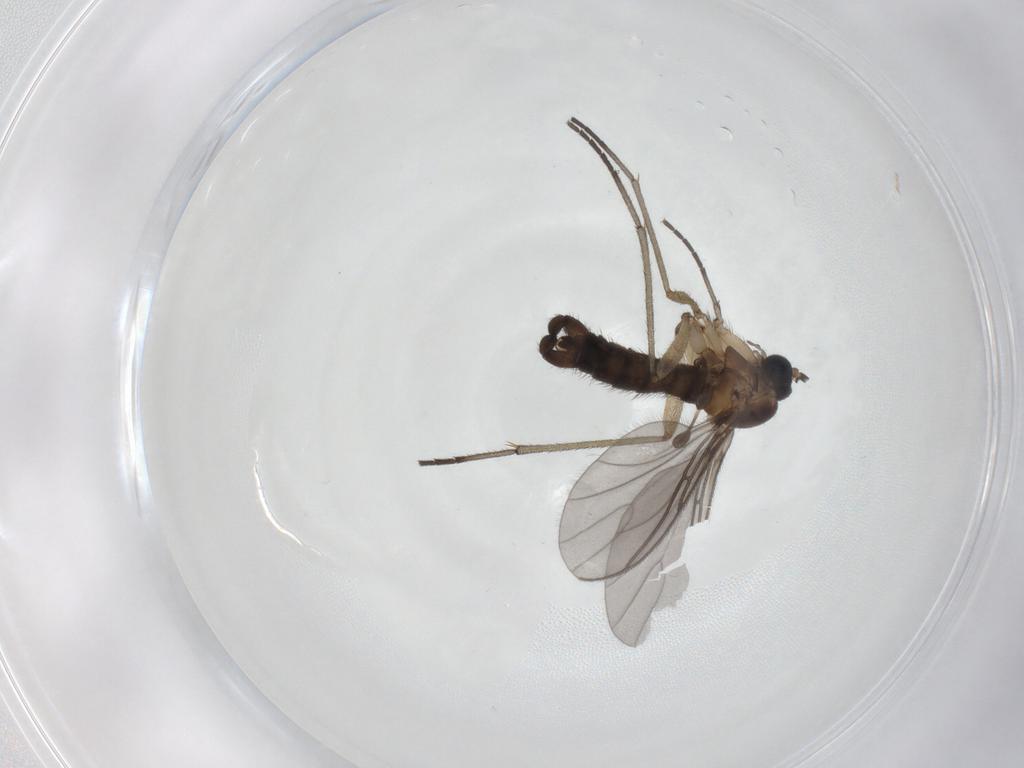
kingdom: Animalia
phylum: Arthropoda
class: Insecta
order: Diptera
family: Sciaridae
